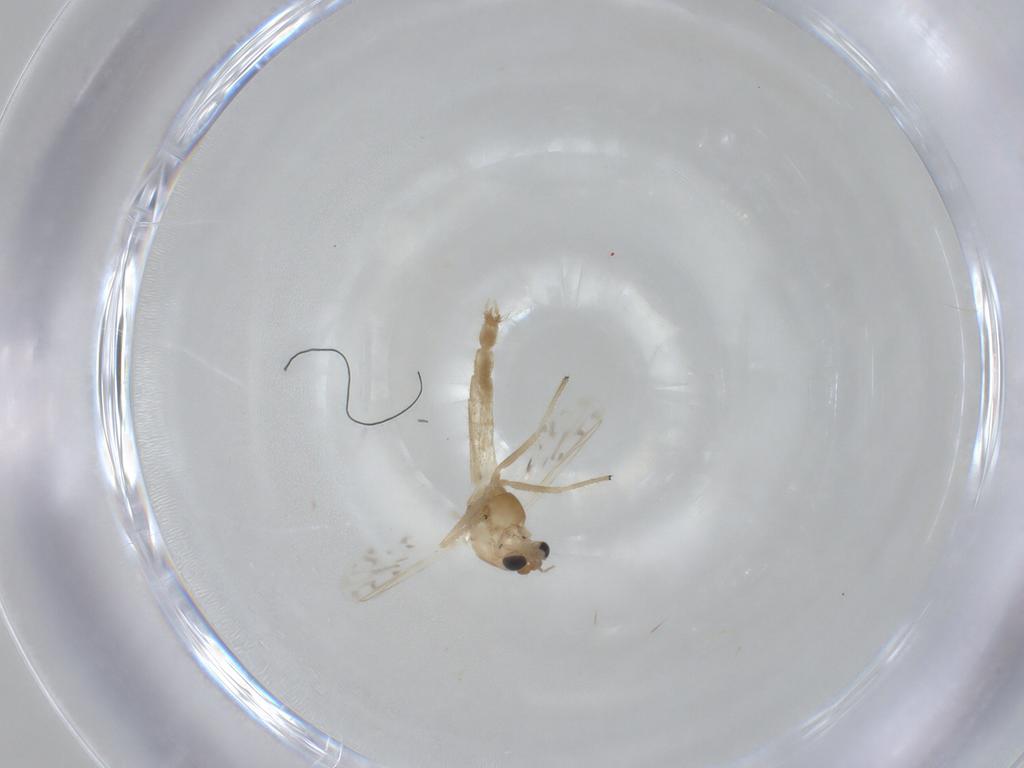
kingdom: Animalia
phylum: Arthropoda
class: Insecta
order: Diptera
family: Chironomidae
